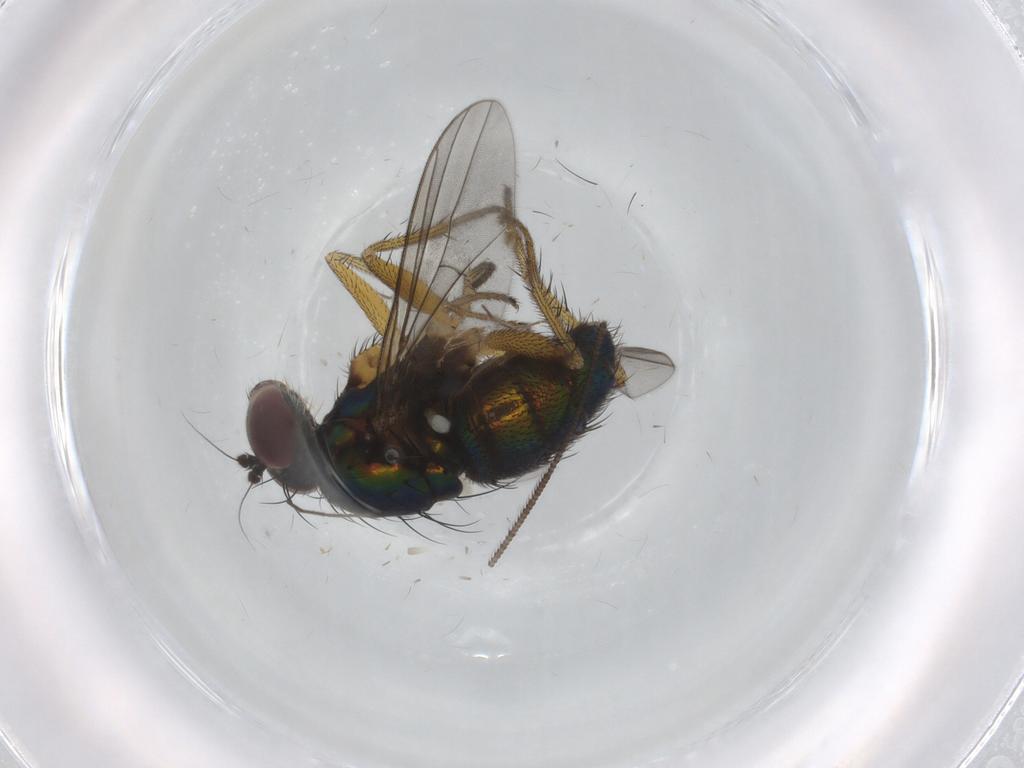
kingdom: Animalia
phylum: Arthropoda
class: Insecta
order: Diptera
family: Dolichopodidae
